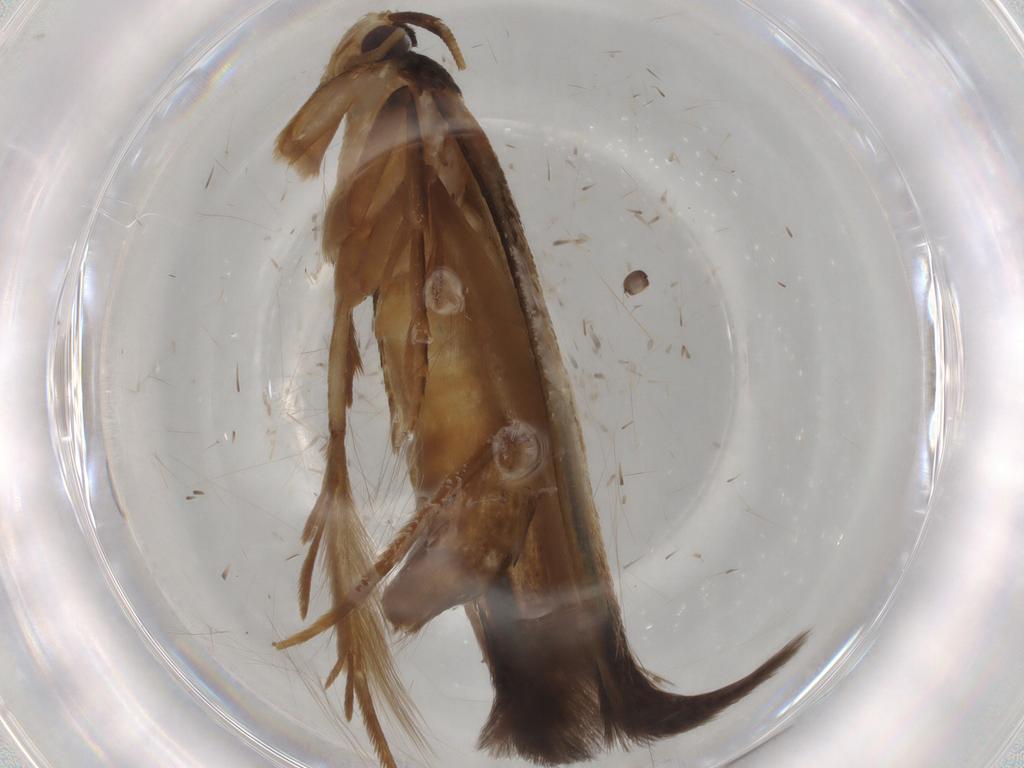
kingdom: Animalia
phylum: Arthropoda
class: Insecta
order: Lepidoptera
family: Tineidae
